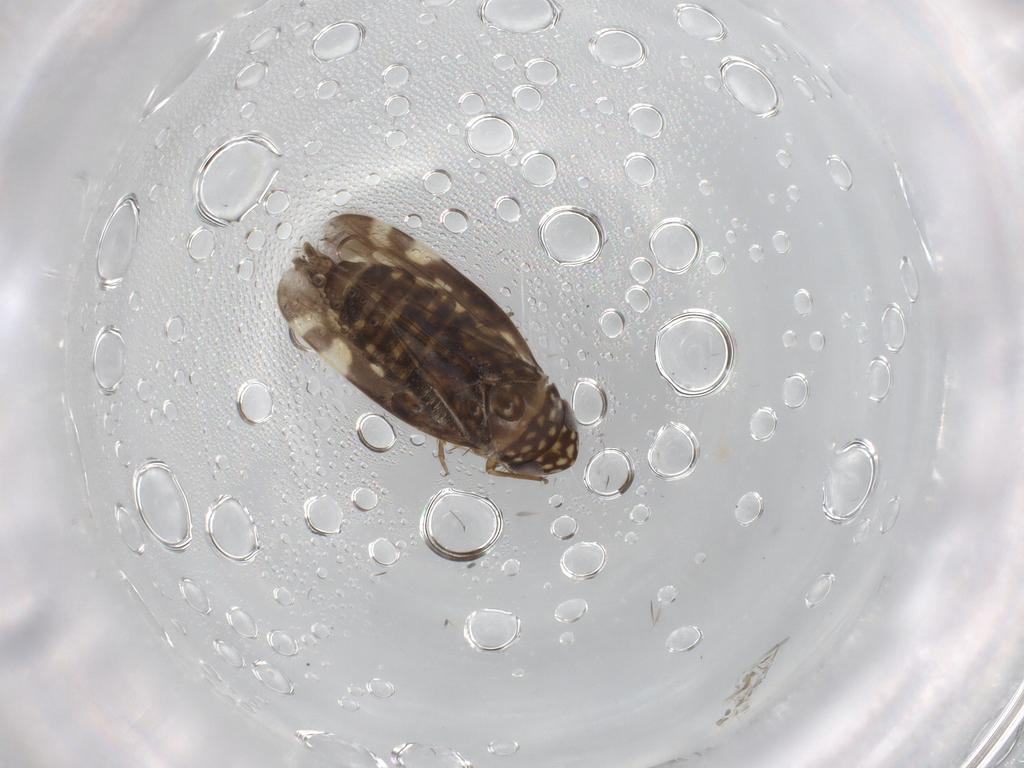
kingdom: Animalia
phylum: Arthropoda
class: Insecta
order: Hemiptera
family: Cicadellidae
